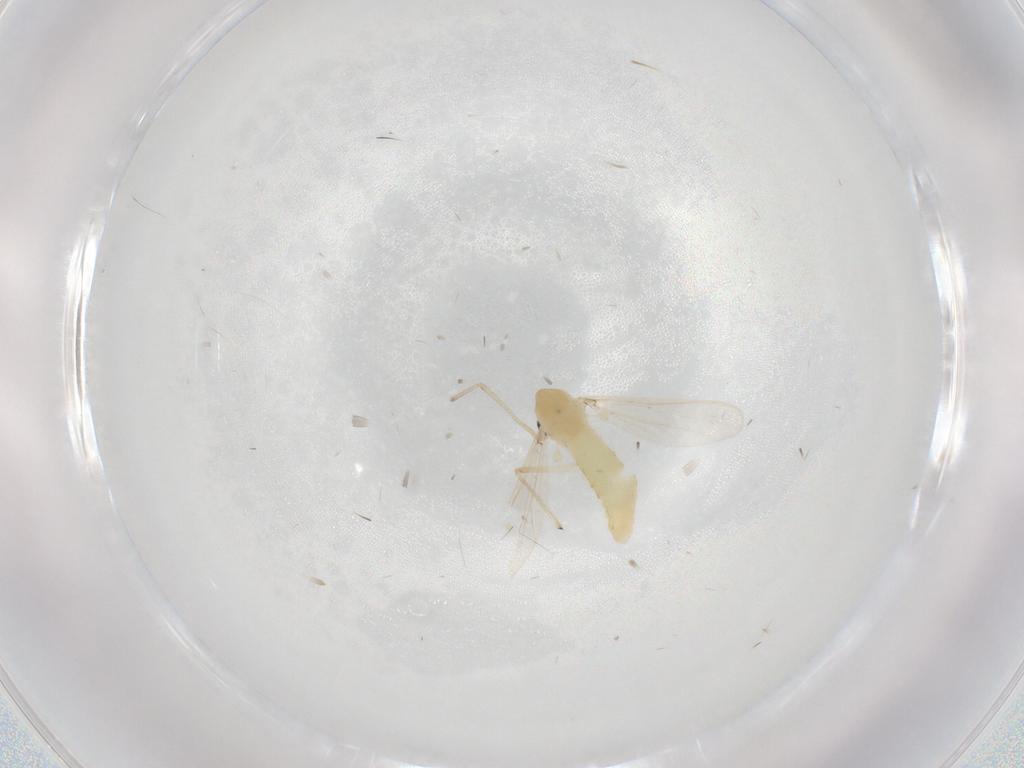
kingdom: Animalia
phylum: Arthropoda
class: Insecta
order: Diptera
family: Chironomidae
